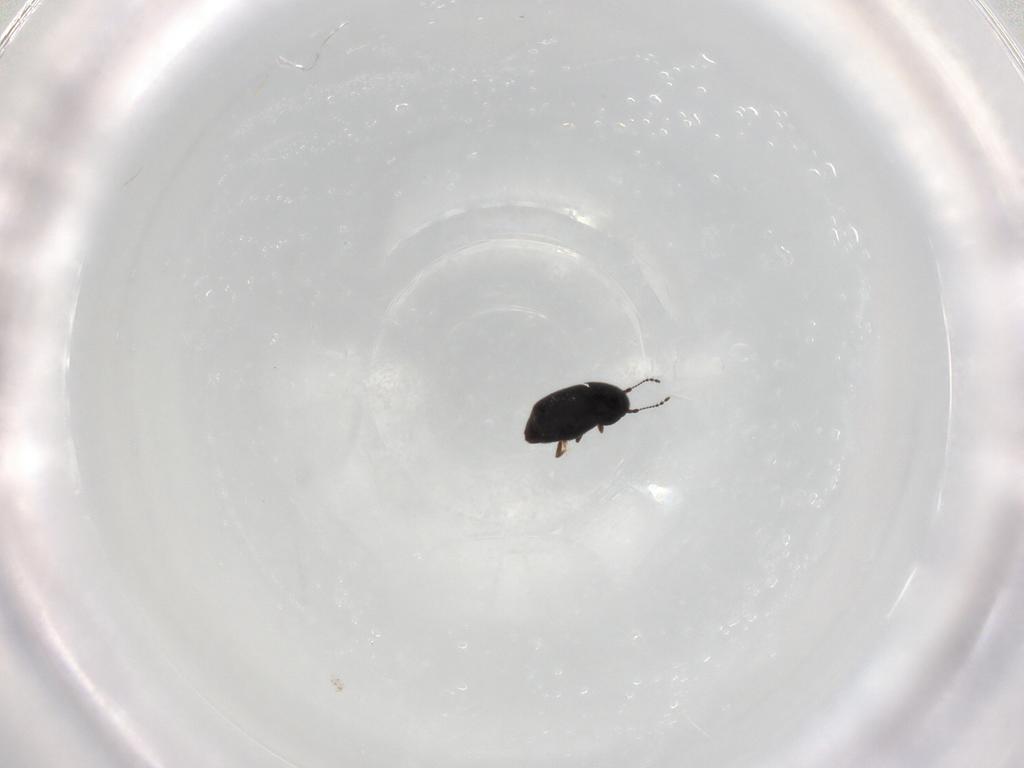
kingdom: Animalia
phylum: Arthropoda
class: Insecta
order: Coleoptera
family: Ptiliidae
